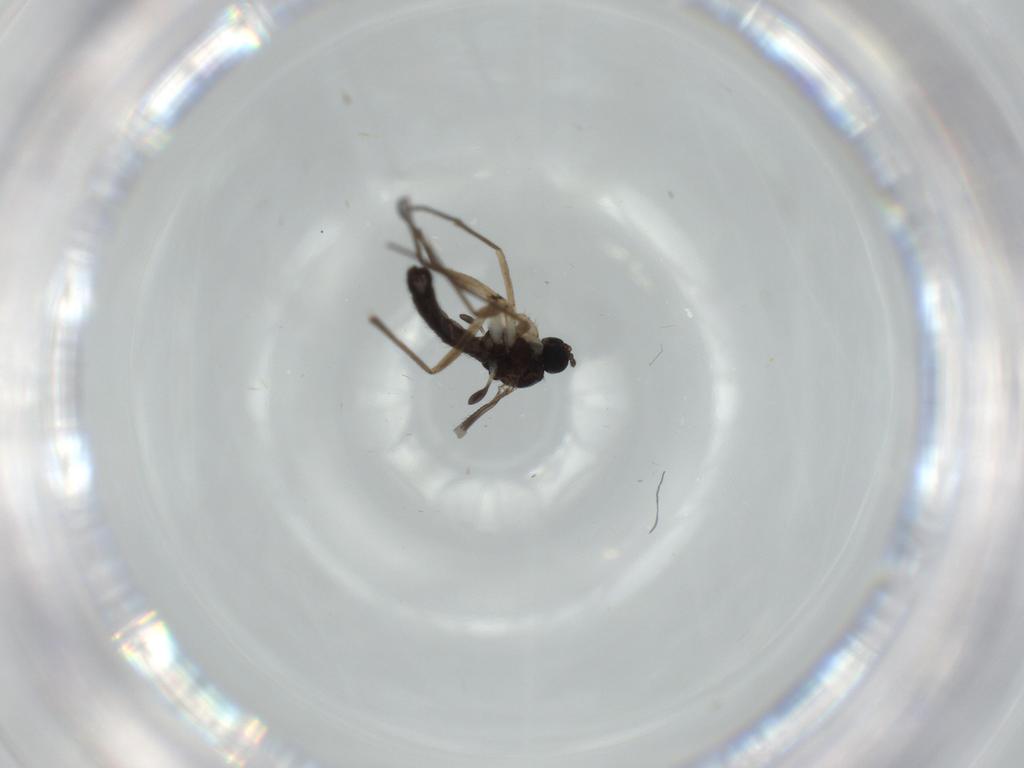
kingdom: Animalia
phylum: Arthropoda
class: Insecta
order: Diptera
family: Sciaridae
